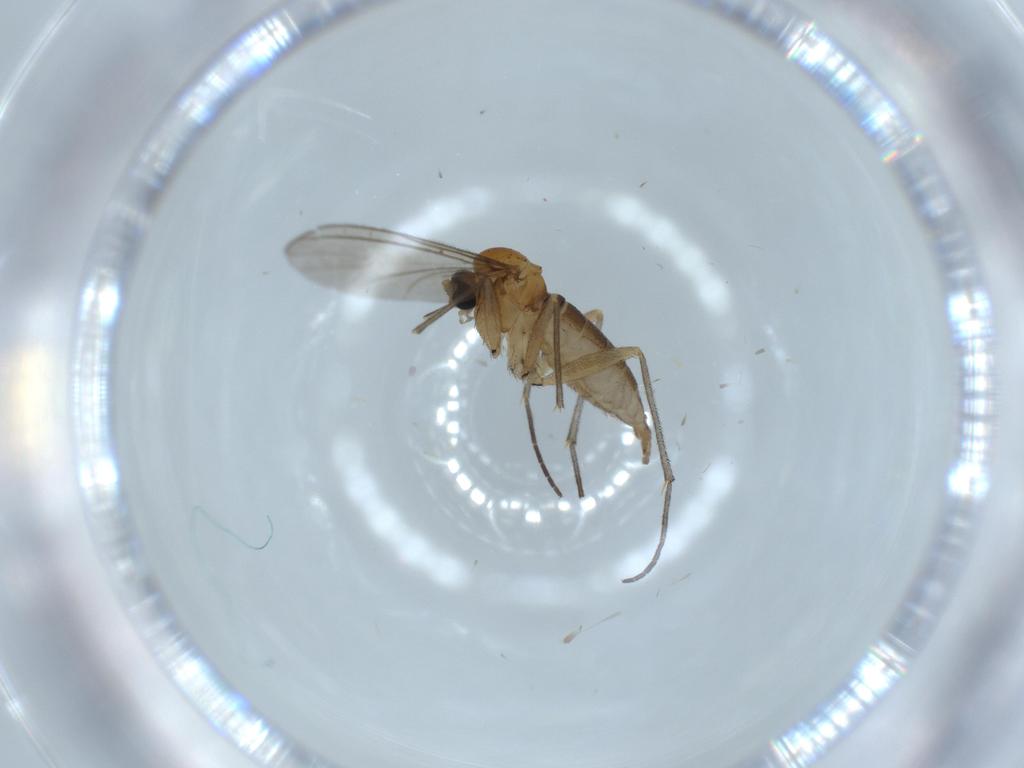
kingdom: Animalia
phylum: Arthropoda
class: Insecta
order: Diptera
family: Sciaridae
